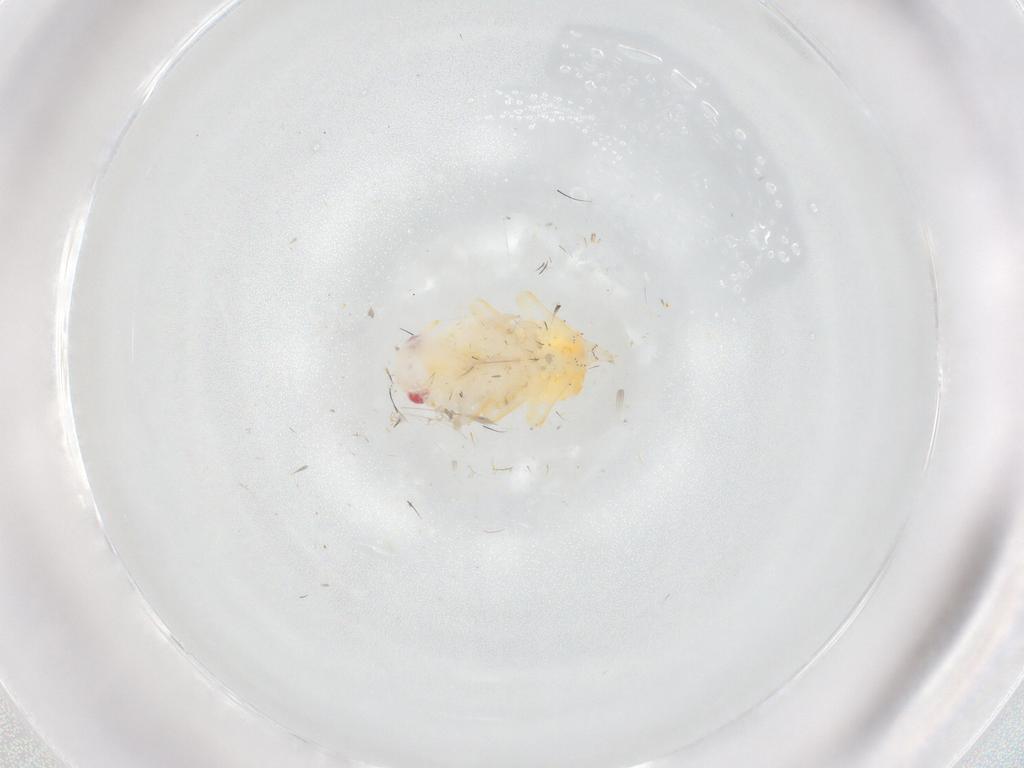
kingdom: Animalia
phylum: Arthropoda
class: Insecta
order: Hemiptera
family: Flatidae
